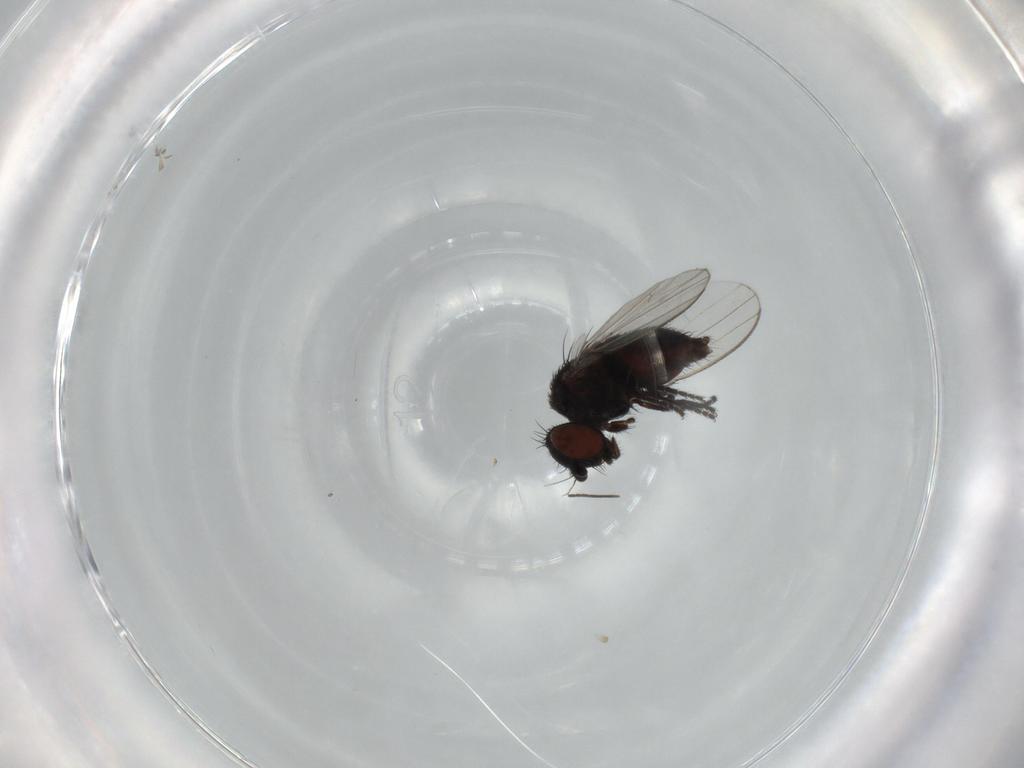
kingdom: Animalia
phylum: Arthropoda
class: Insecta
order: Diptera
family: Sciaridae
